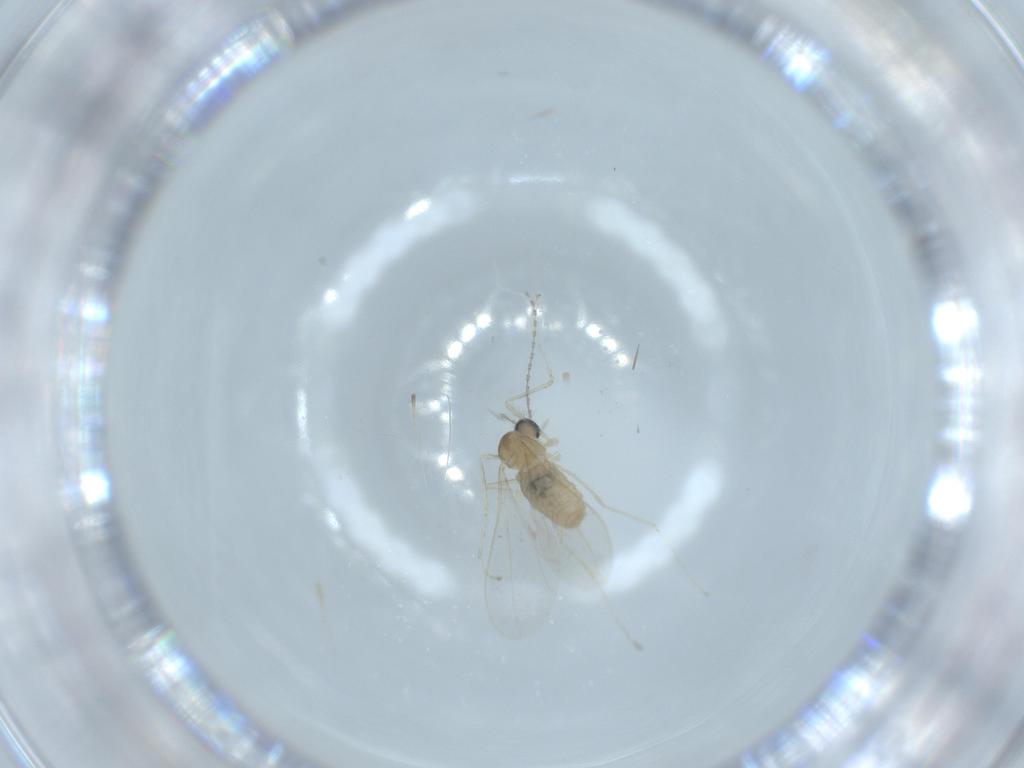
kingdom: Animalia
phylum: Arthropoda
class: Insecta
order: Diptera
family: Cecidomyiidae
